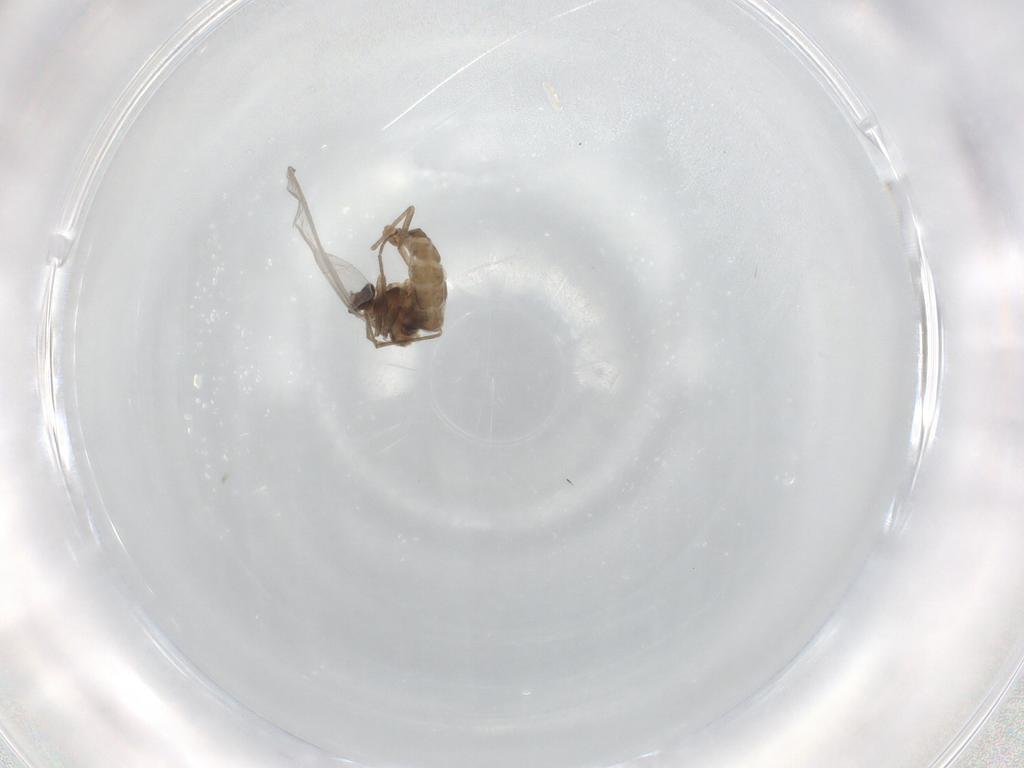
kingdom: Animalia
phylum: Arthropoda
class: Insecta
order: Diptera
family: Cecidomyiidae
